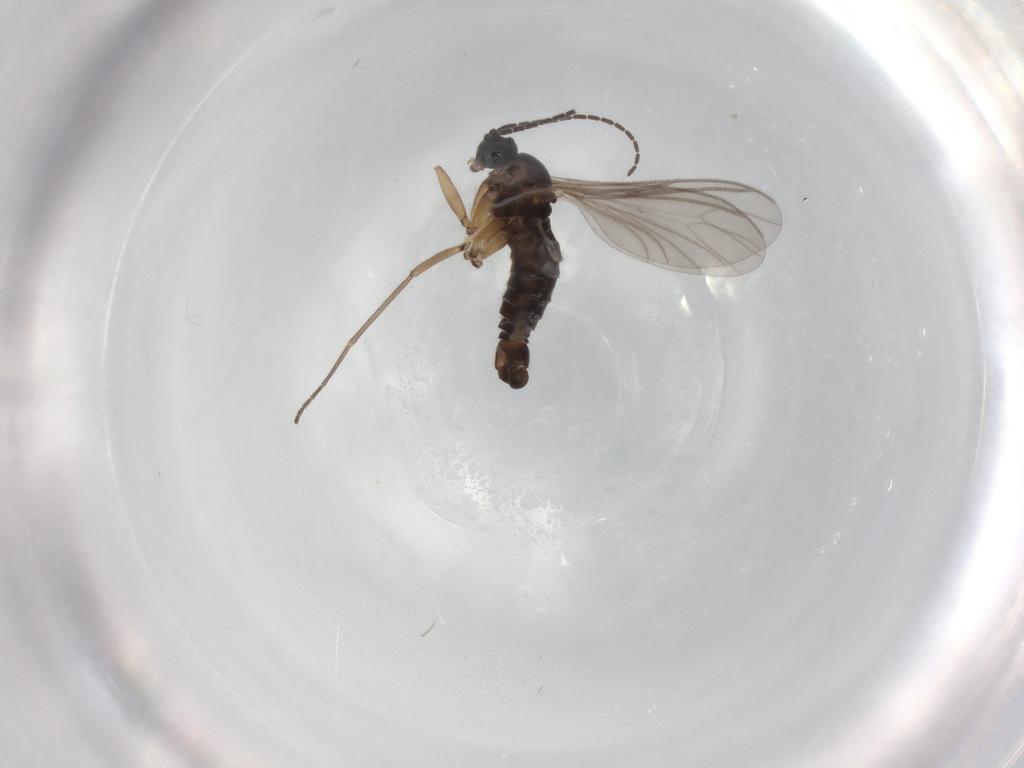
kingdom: Animalia
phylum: Arthropoda
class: Insecta
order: Diptera
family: Sciaridae
